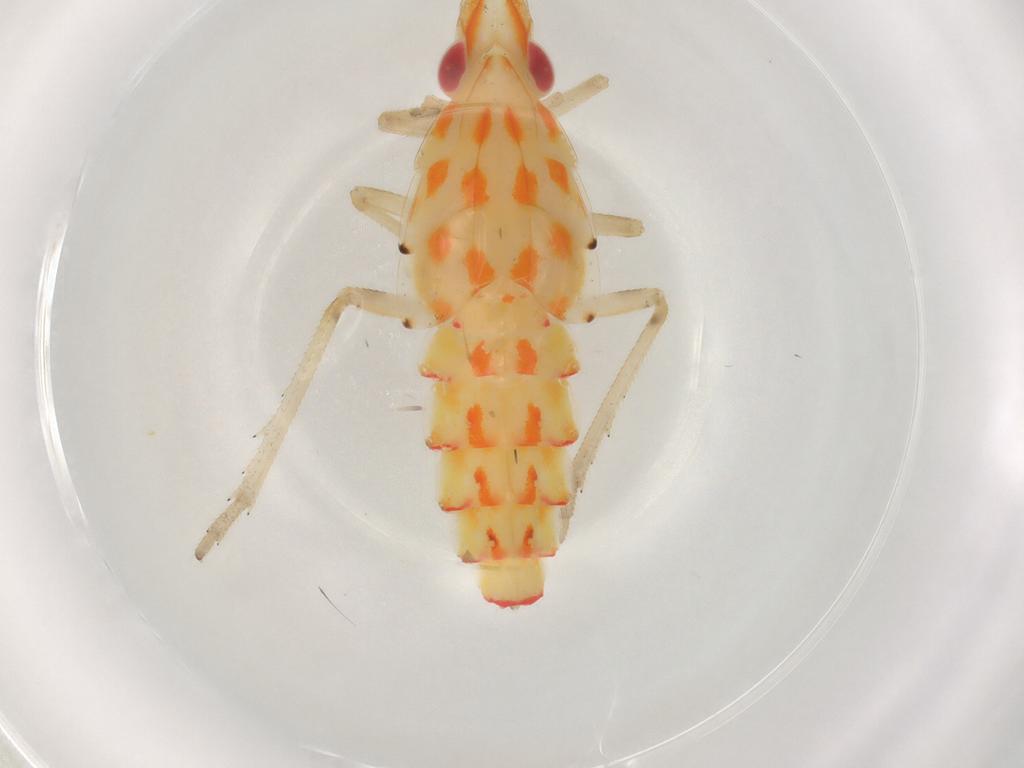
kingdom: Animalia
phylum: Arthropoda
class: Insecta
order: Hemiptera
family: Tropiduchidae
